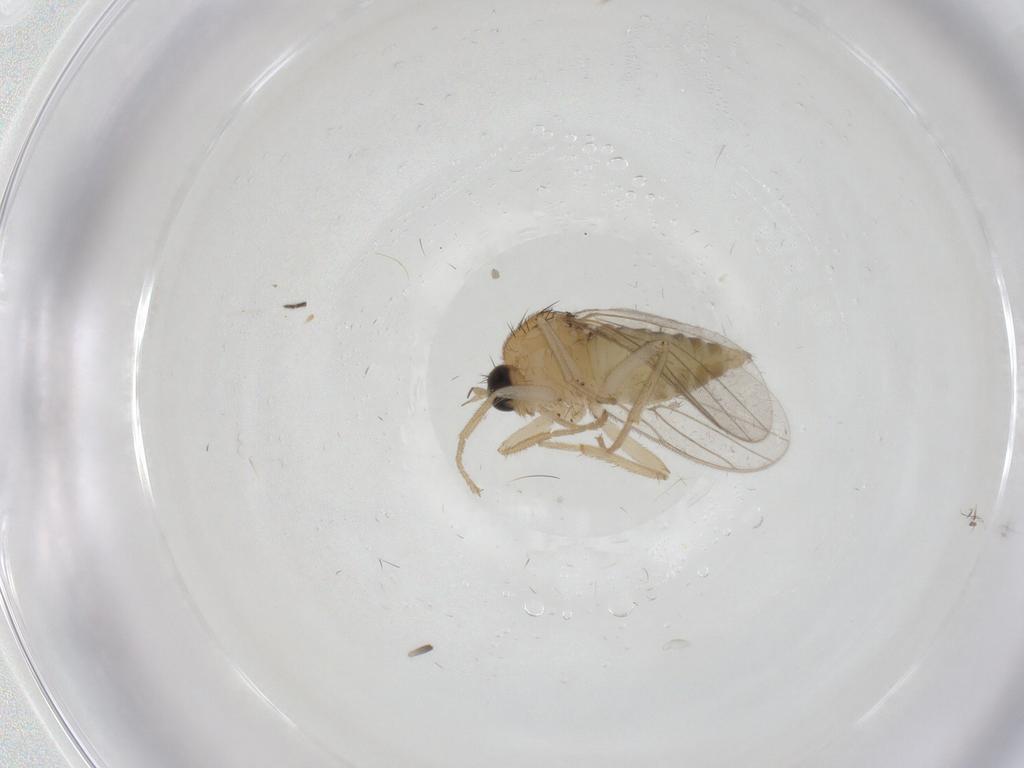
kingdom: Animalia
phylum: Arthropoda
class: Insecta
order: Diptera
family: Hybotidae
